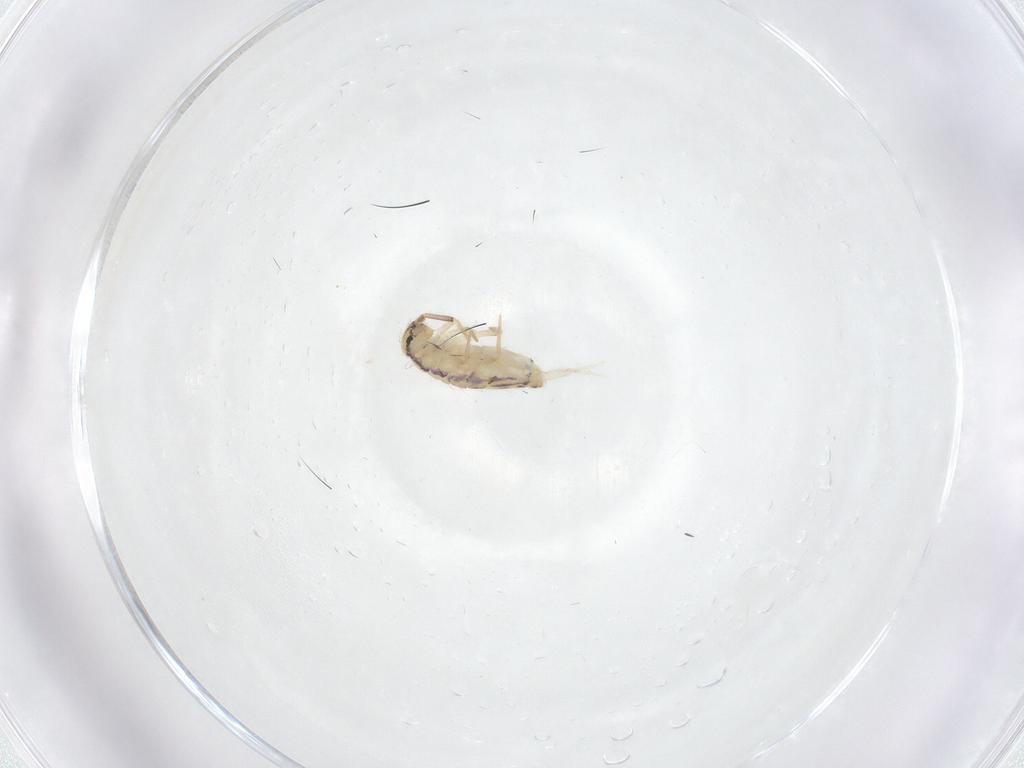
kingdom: Animalia
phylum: Arthropoda
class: Collembola
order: Entomobryomorpha
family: Entomobryidae
